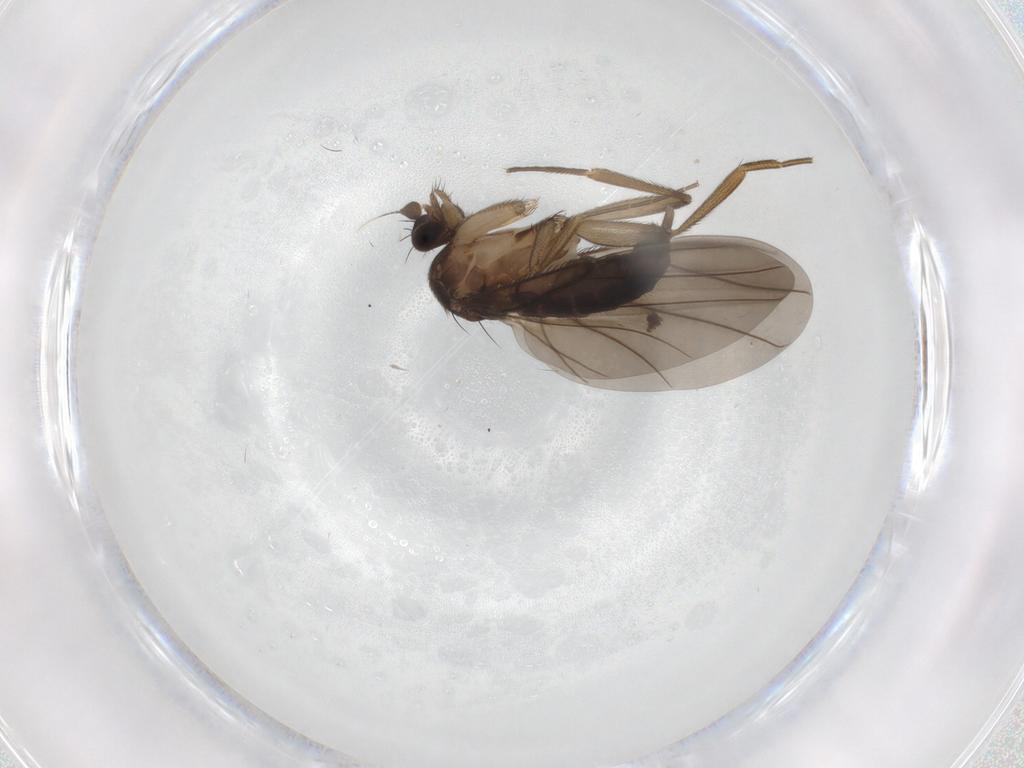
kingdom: Animalia
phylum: Arthropoda
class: Insecta
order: Diptera
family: Phoridae
